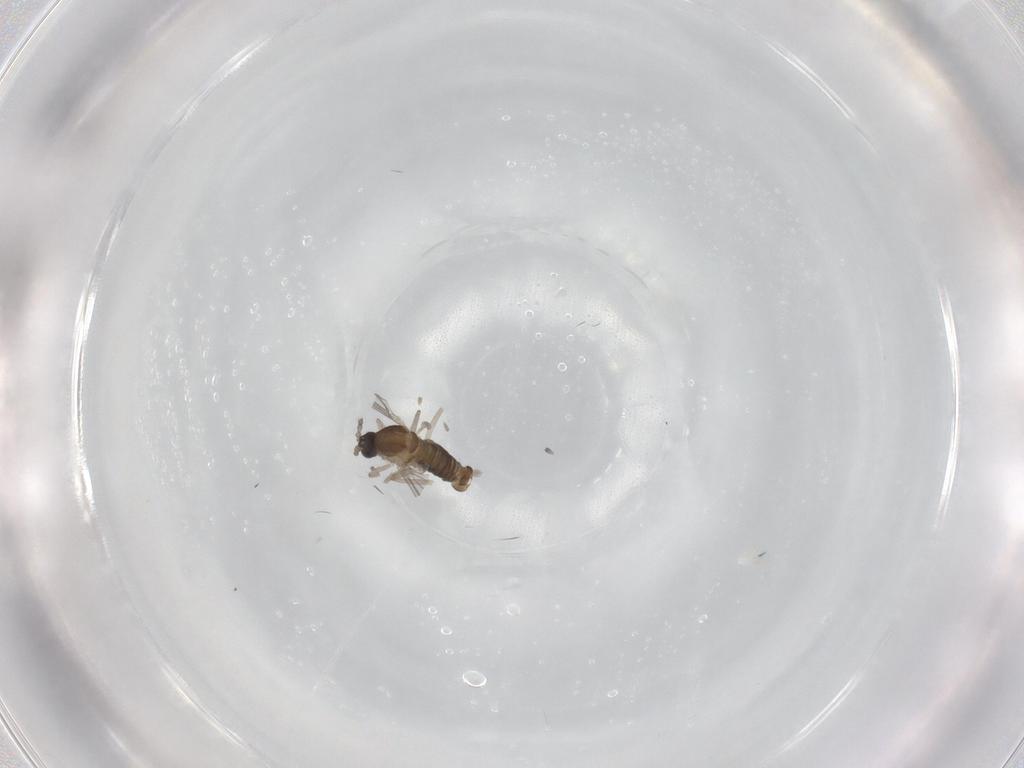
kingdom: Animalia
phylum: Arthropoda
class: Insecta
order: Diptera
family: Cecidomyiidae
